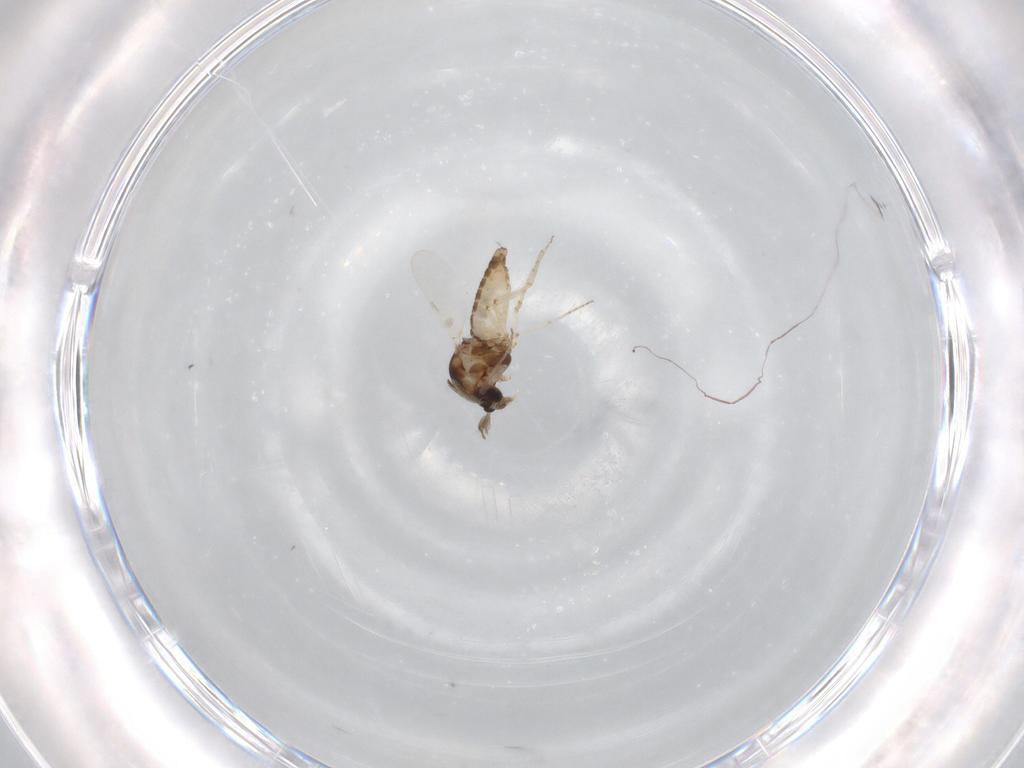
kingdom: Animalia
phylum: Arthropoda
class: Insecta
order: Diptera
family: Ceratopogonidae
